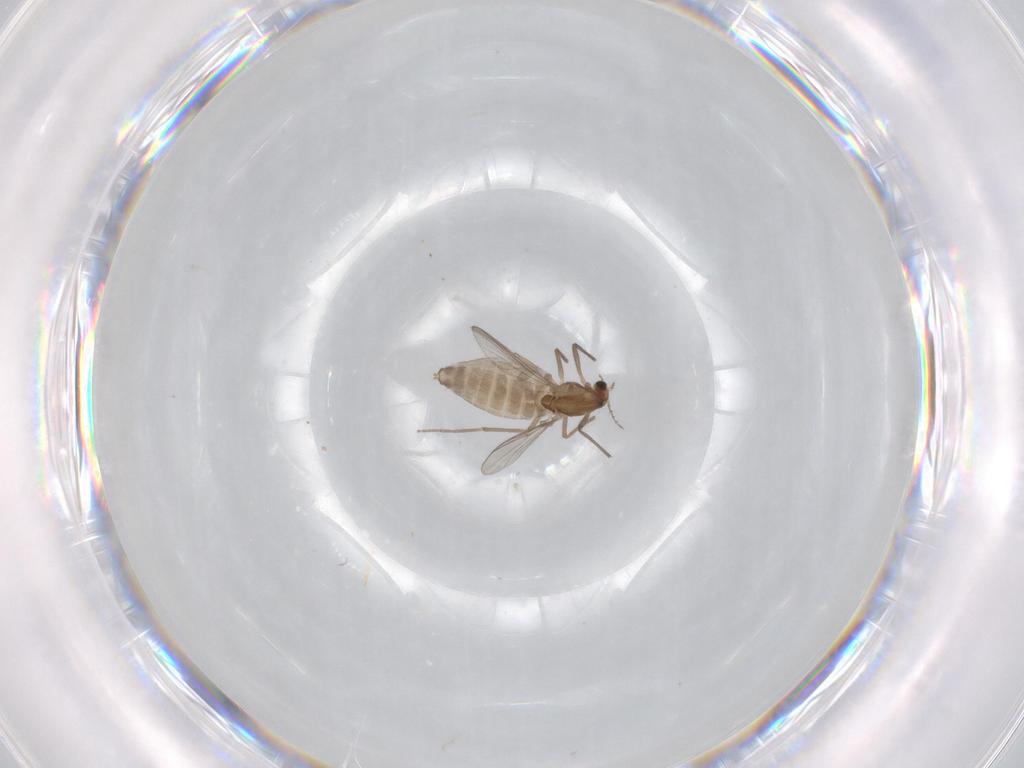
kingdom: Animalia
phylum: Arthropoda
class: Insecta
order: Diptera
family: Chironomidae
